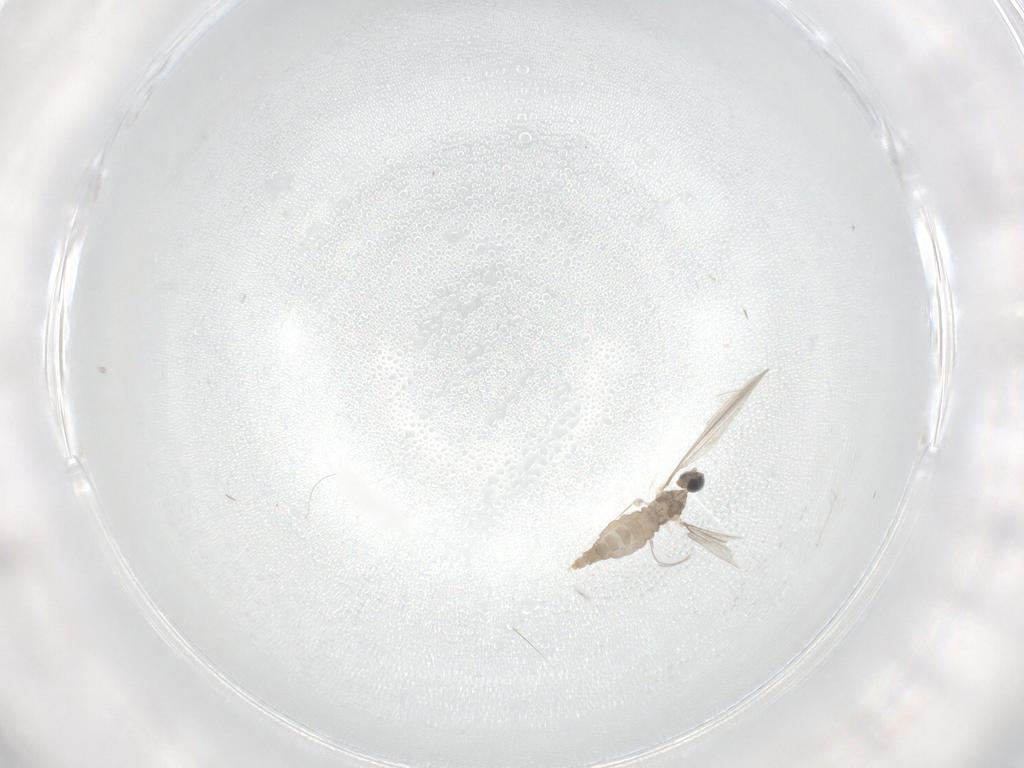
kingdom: Animalia
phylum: Arthropoda
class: Insecta
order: Diptera
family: Cecidomyiidae
